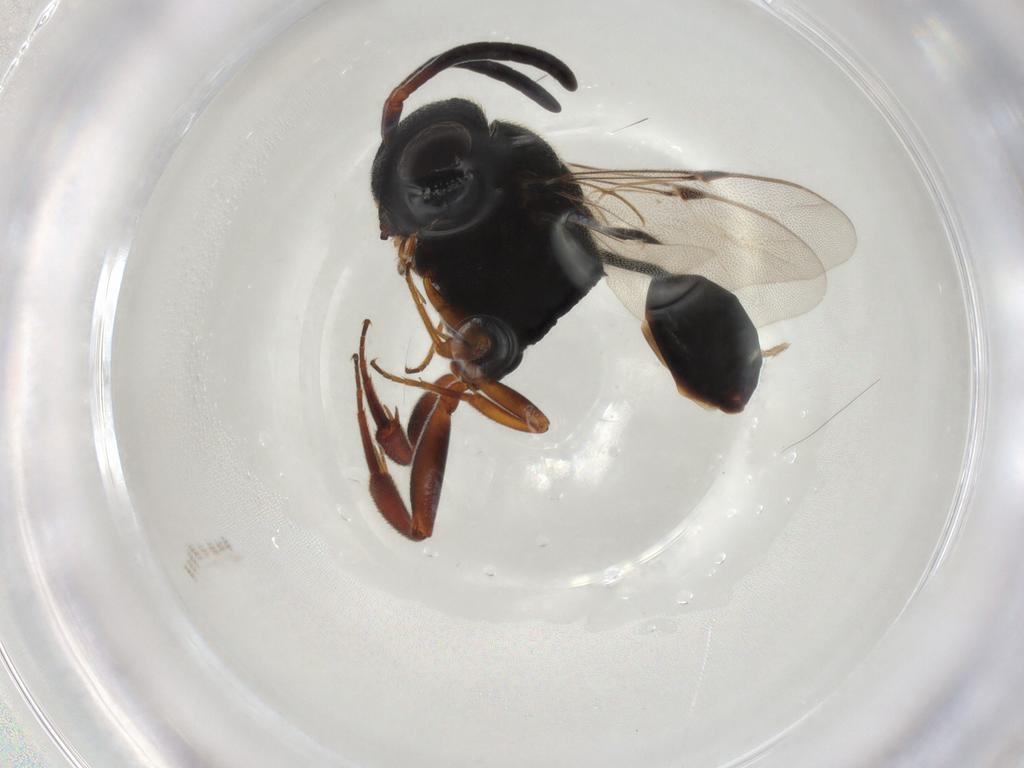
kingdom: Animalia
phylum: Arthropoda
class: Insecta
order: Hymenoptera
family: Evaniidae
